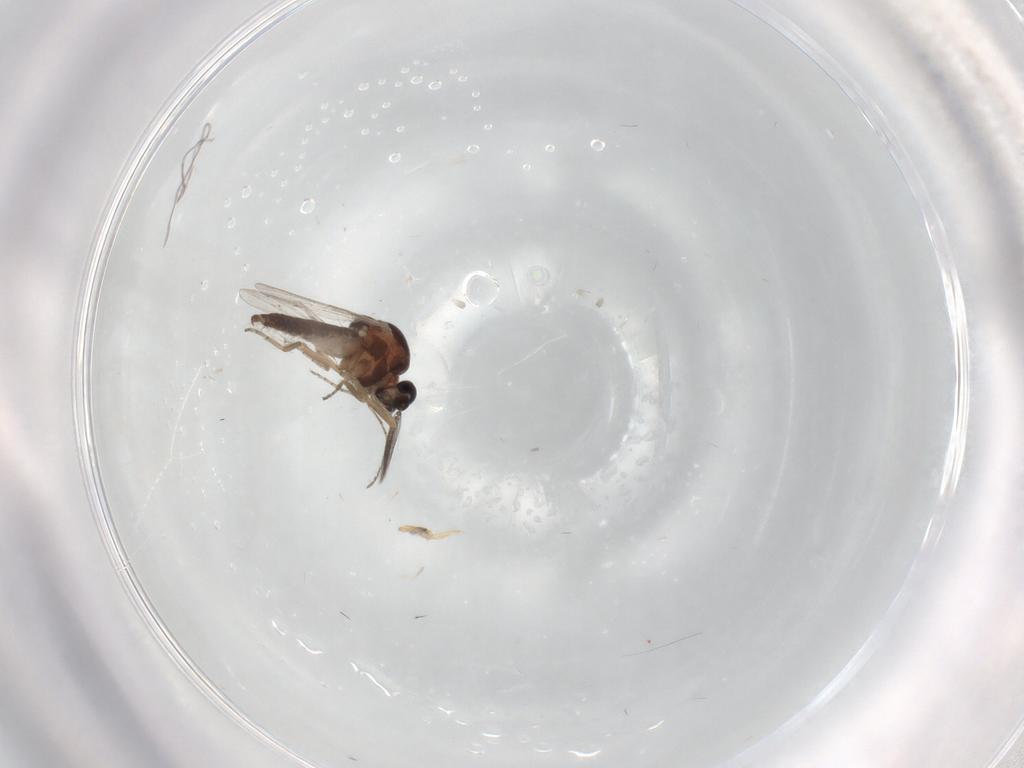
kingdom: Animalia
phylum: Arthropoda
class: Insecta
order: Diptera
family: Ceratopogonidae
